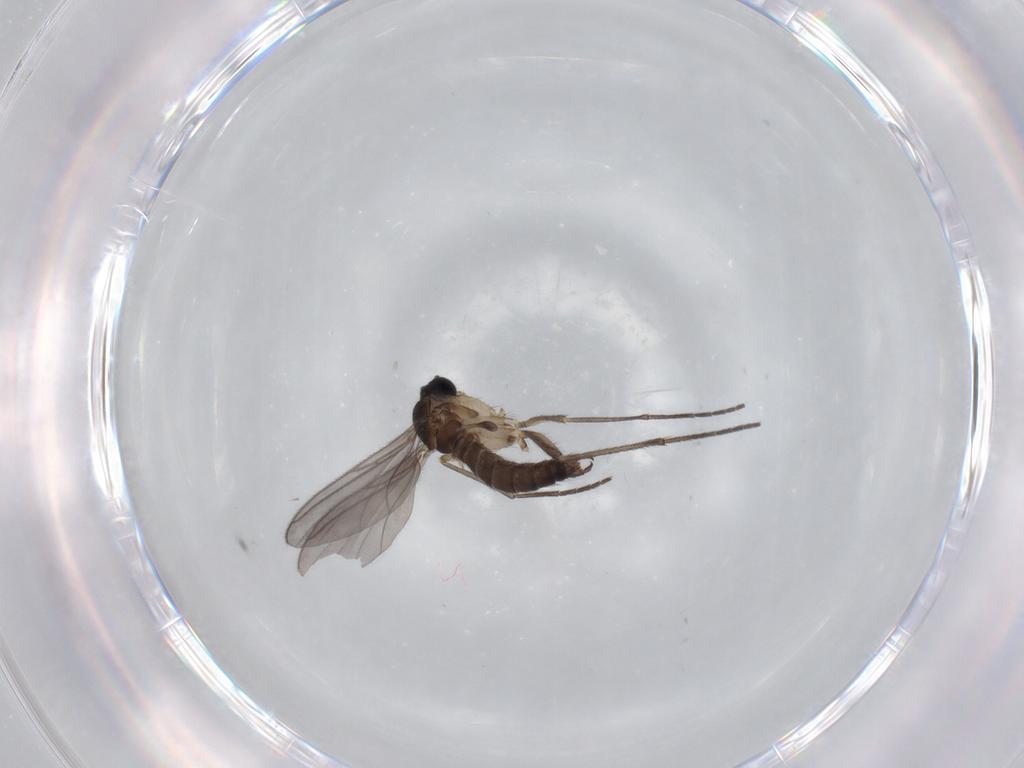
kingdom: Animalia
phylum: Arthropoda
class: Insecta
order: Diptera
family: Sciaridae
